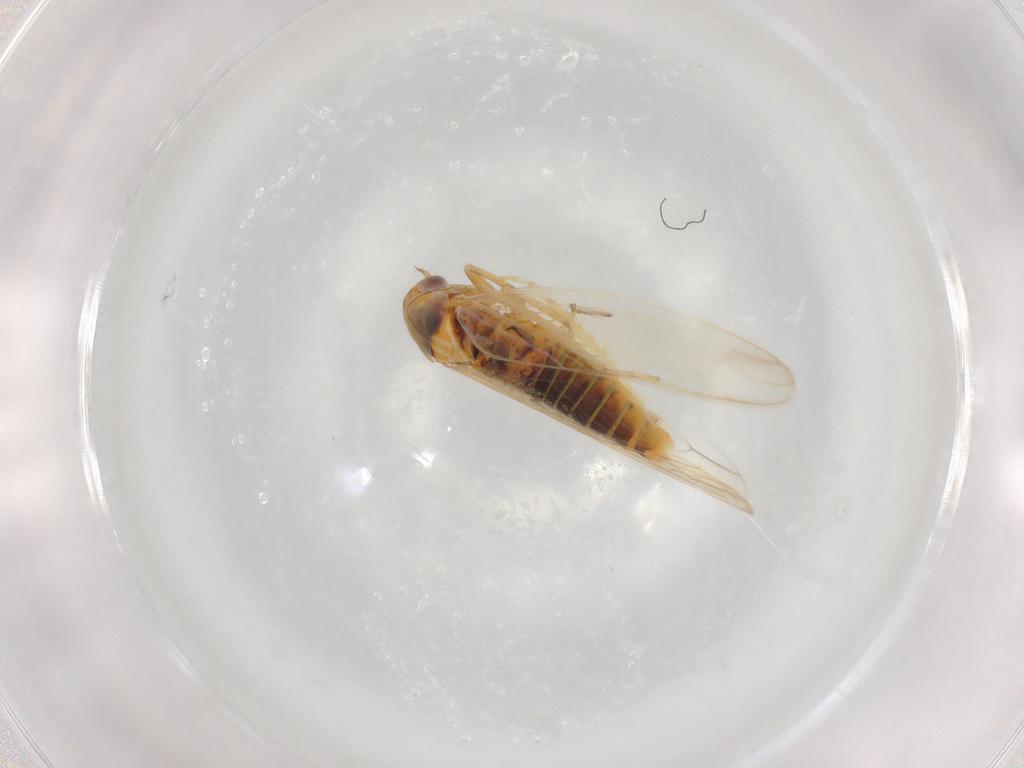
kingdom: Animalia
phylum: Arthropoda
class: Insecta
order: Hemiptera
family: Cicadellidae
